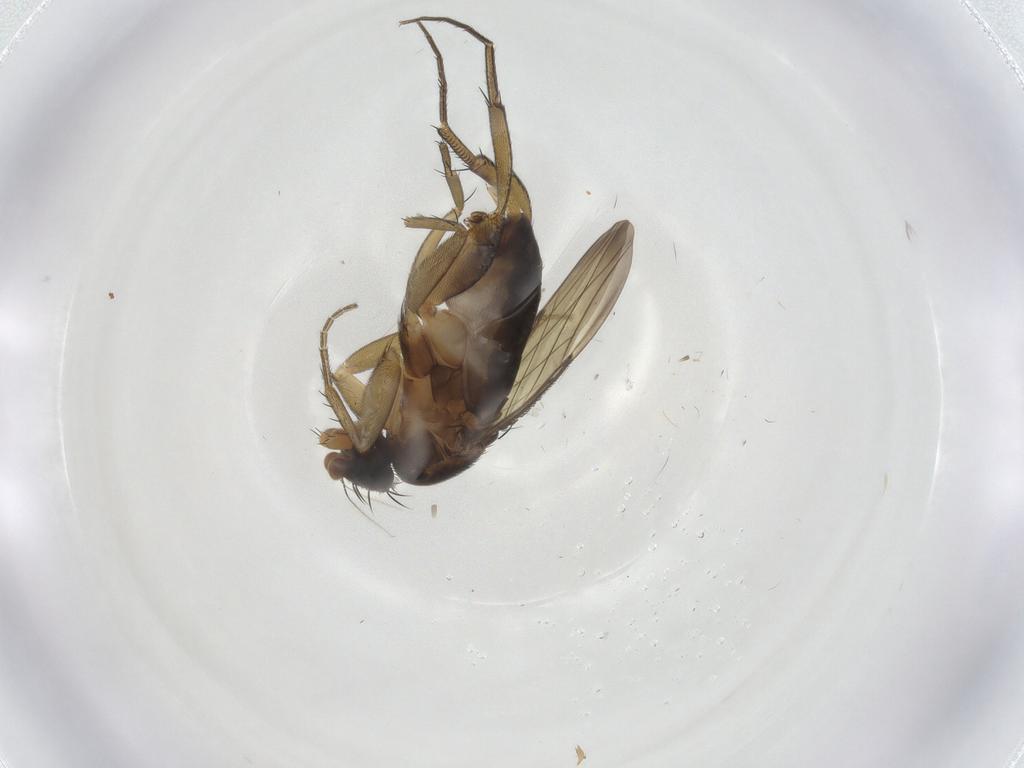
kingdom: Animalia
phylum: Arthropoda
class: Insecta
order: Diptera
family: Phoridae
